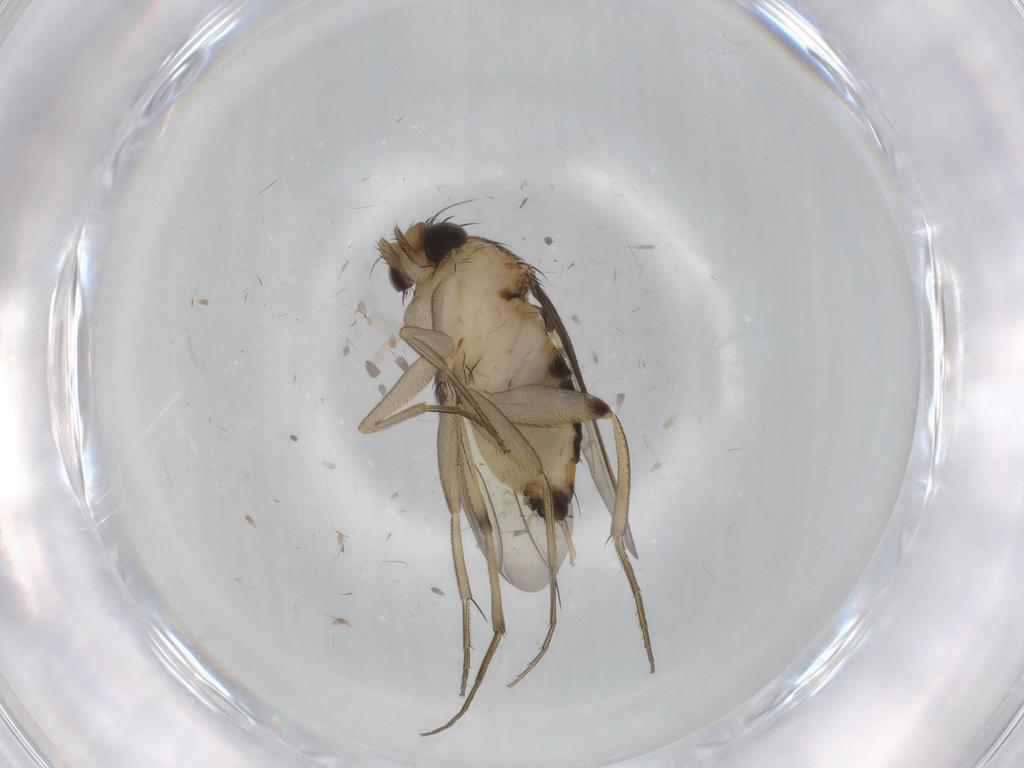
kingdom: Animalia
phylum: Arthropoda
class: Insecta
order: Diptera
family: Phoridae
